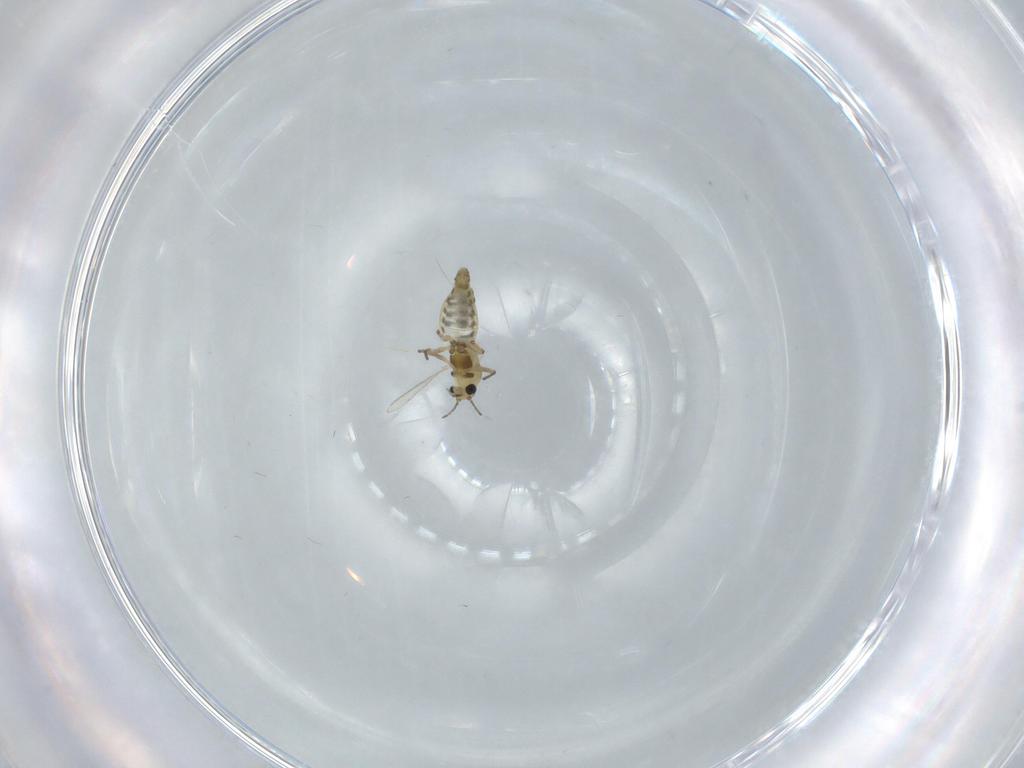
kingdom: Animalia
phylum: Arthropoda
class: Insecta
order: Diptera
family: Chironomidae
